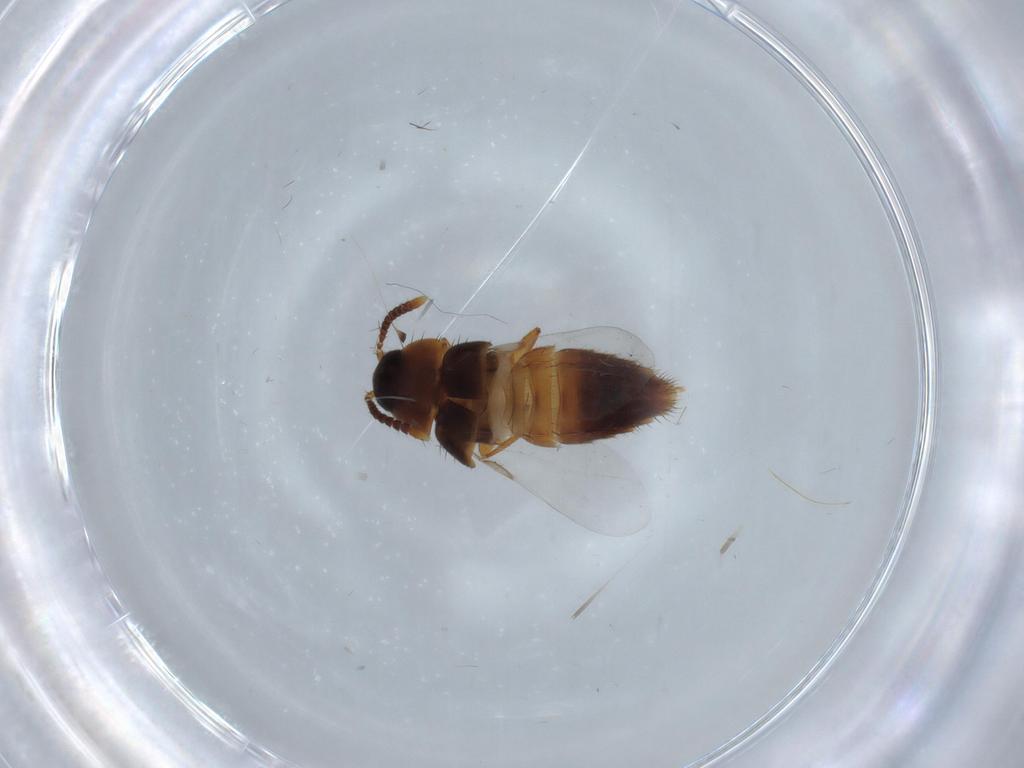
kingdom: Animalia
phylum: Arthropoda
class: Insecta
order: Coleoptera
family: Staphylinidae
